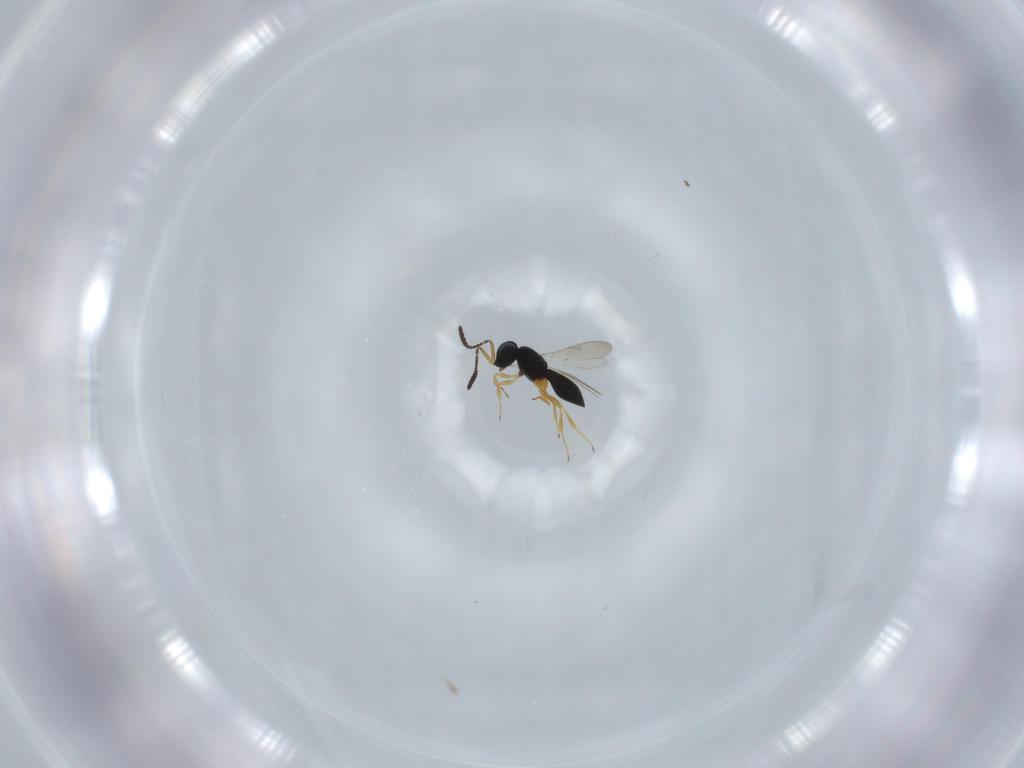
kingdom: Animalia
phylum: Arthropoda
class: Insecta
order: Hymenoptera
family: Scelionidae
